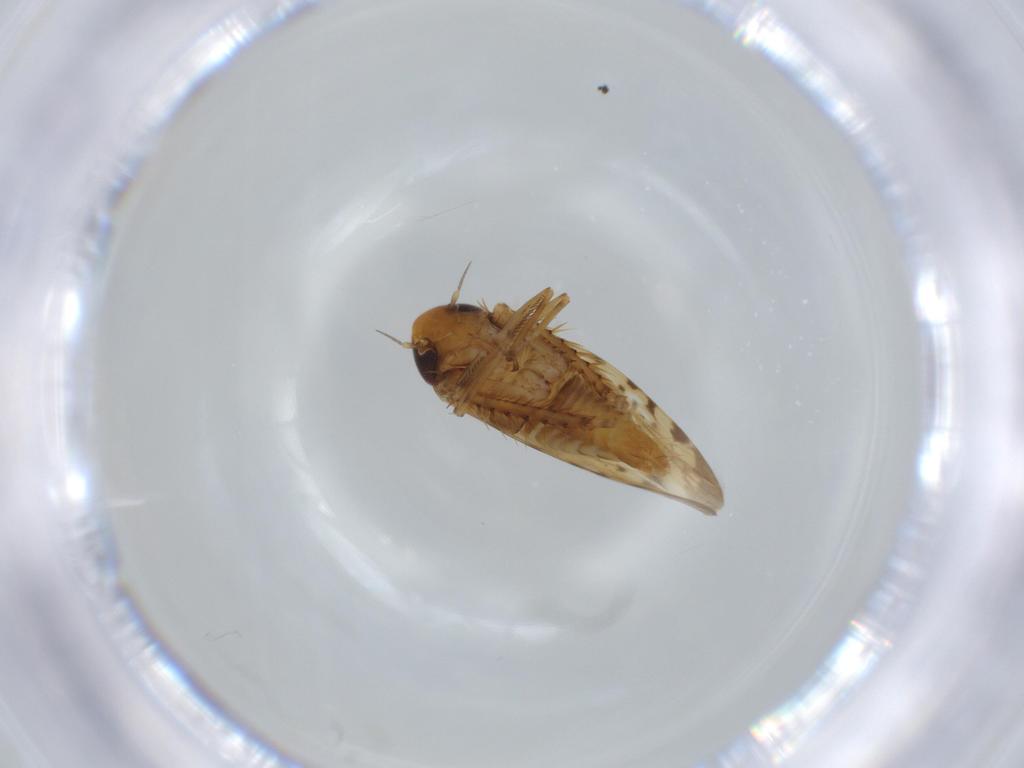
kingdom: Animalia
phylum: Arthropoda
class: Insecta
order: Hemiptera
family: Cicadellidae
